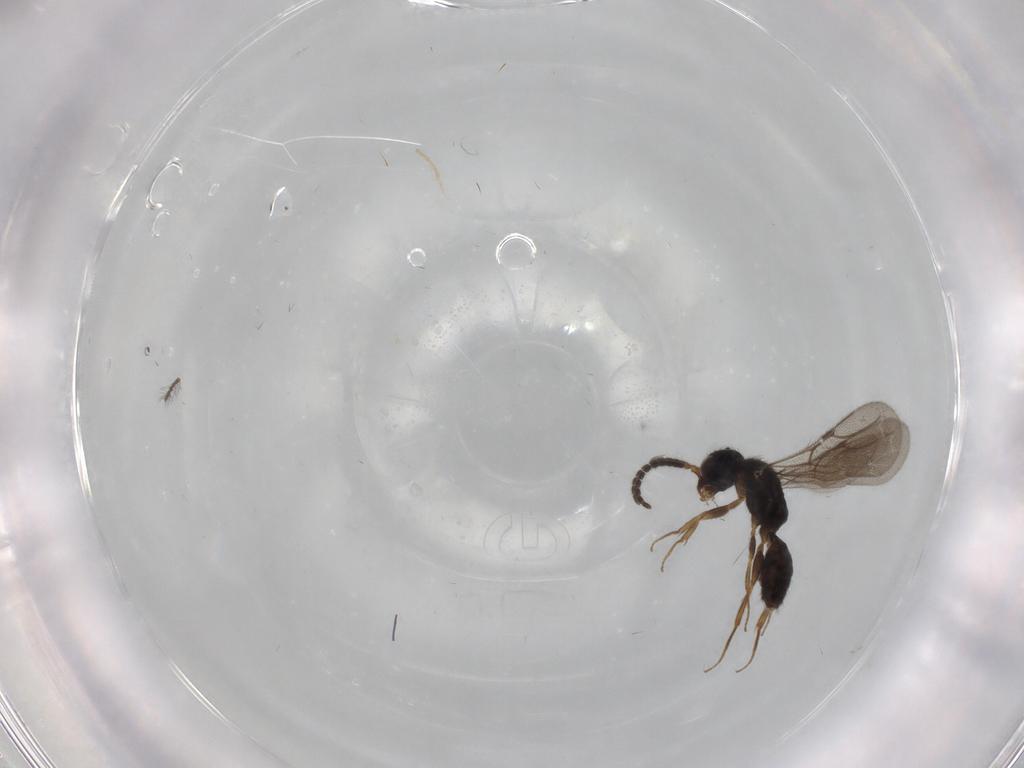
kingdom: Animalia
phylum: Arthropoda
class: Insecta
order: Hymenoptera
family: Bethylidae
